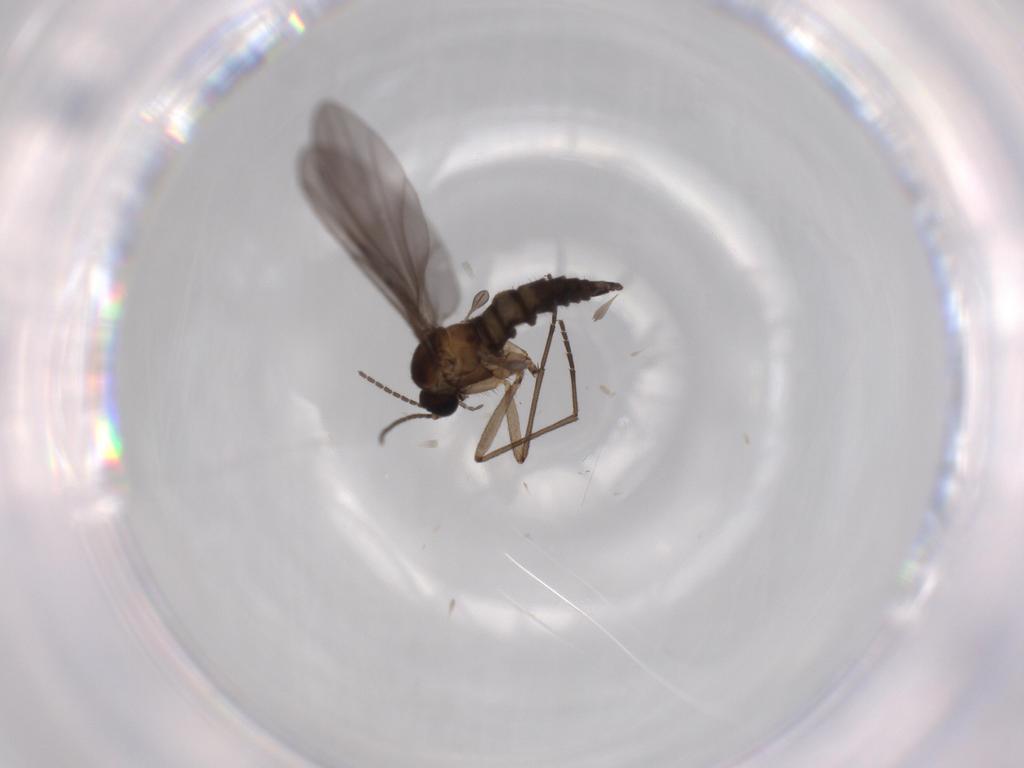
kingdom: Animalia
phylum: Arthropoda
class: Insecta
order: Diptera
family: Sciaridae
